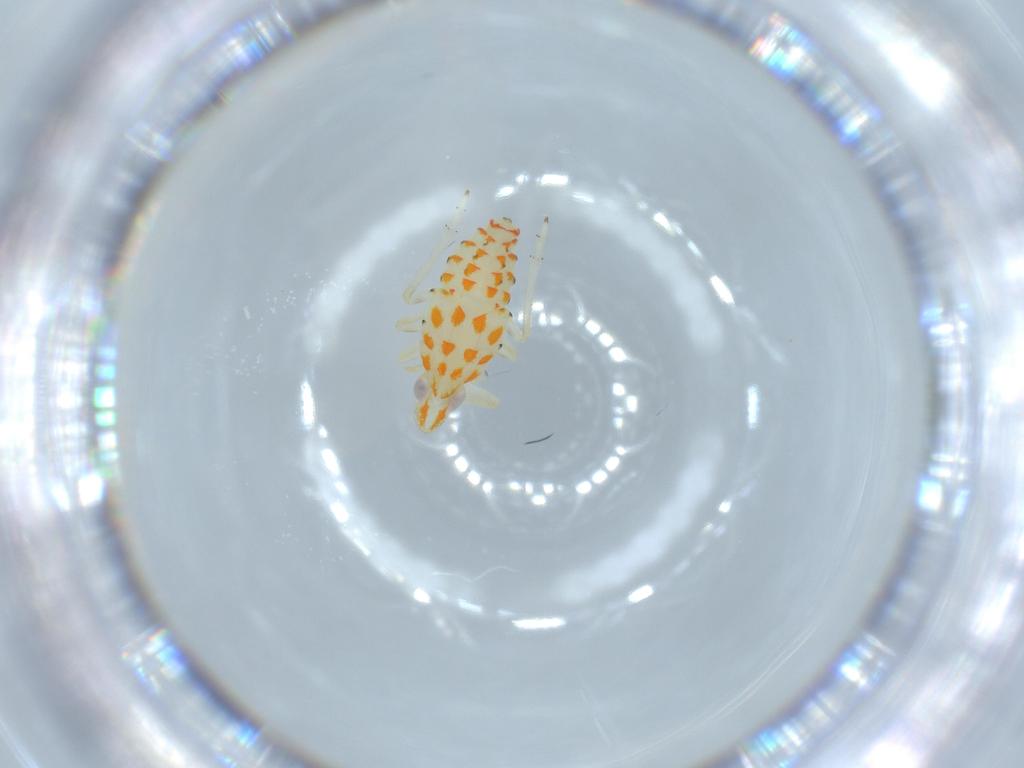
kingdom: Animalia
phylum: Arthropoda
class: Insecta
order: Hemiptera
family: Tropiduchidae
